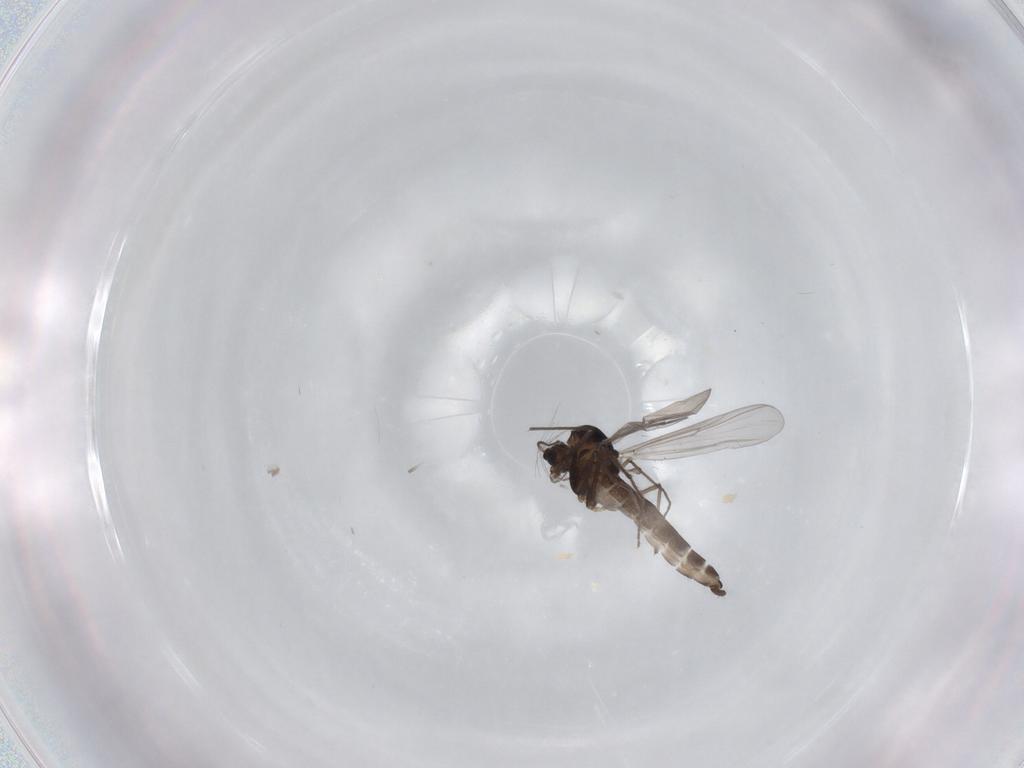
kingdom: Animalia
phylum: Arthropoda
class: Insecta
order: Diptera
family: Chironomidae
